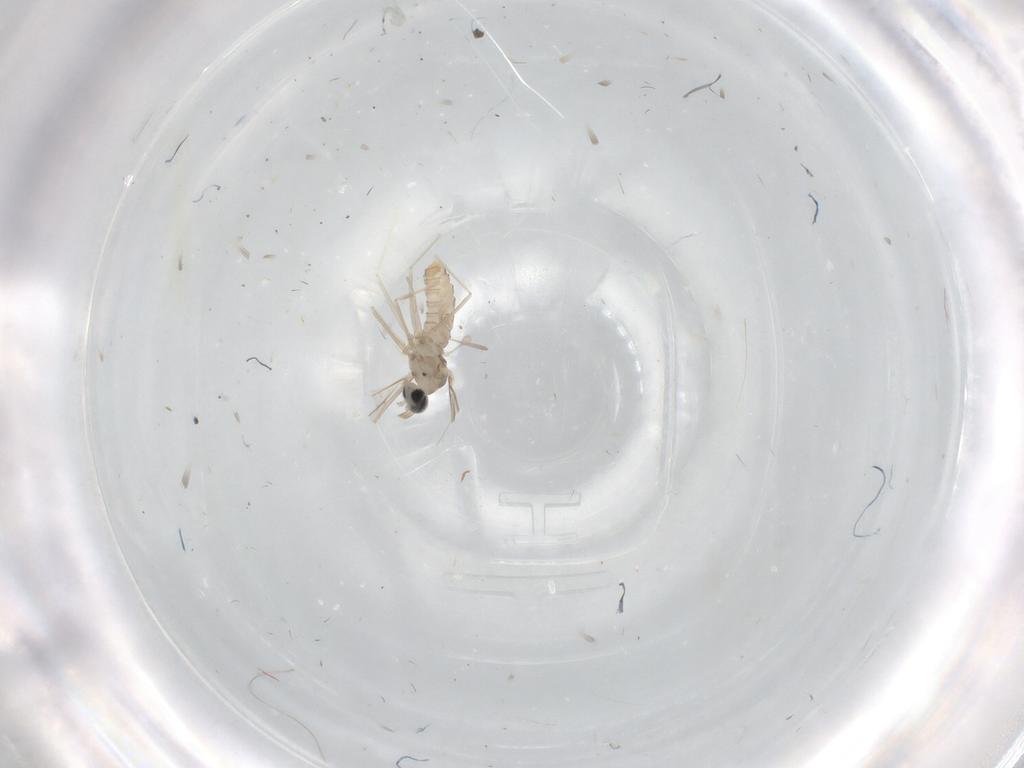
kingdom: Animalia
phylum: Arthropoda
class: Insecta
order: Diptera
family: Cecidomyiidae
